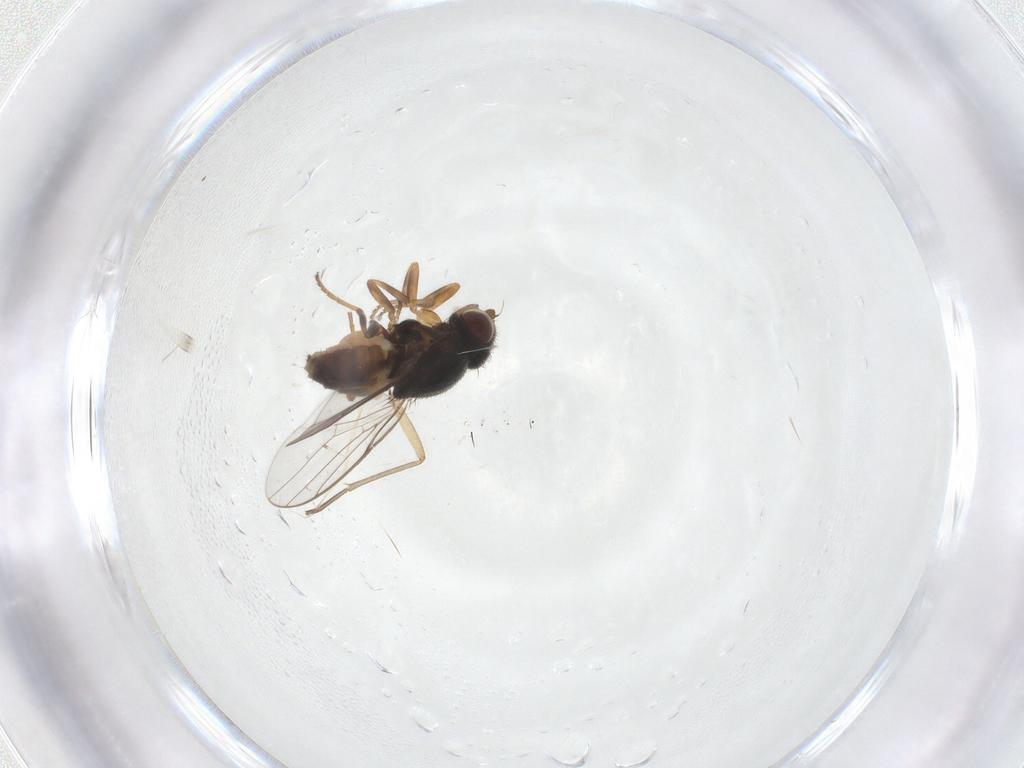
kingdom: Animalia
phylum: Arthropoda
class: Insecta
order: Diptera
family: Chloropidae
